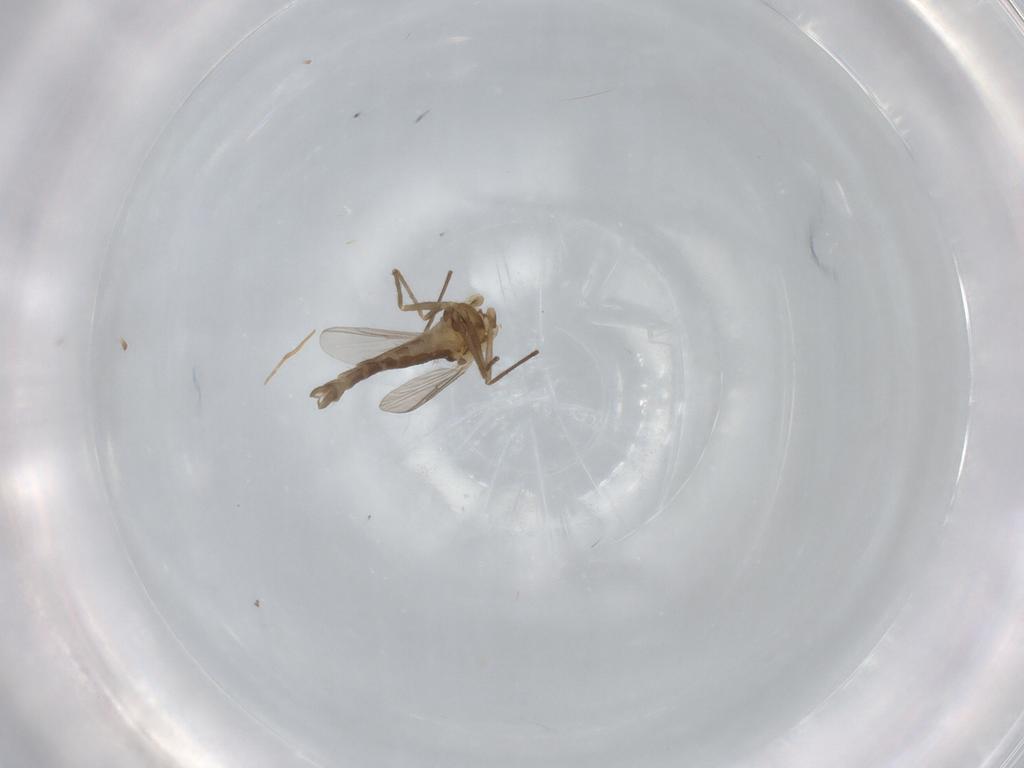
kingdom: Animalia
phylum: Arthropoda
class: Insecta
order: Diptera
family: Chironomidae
